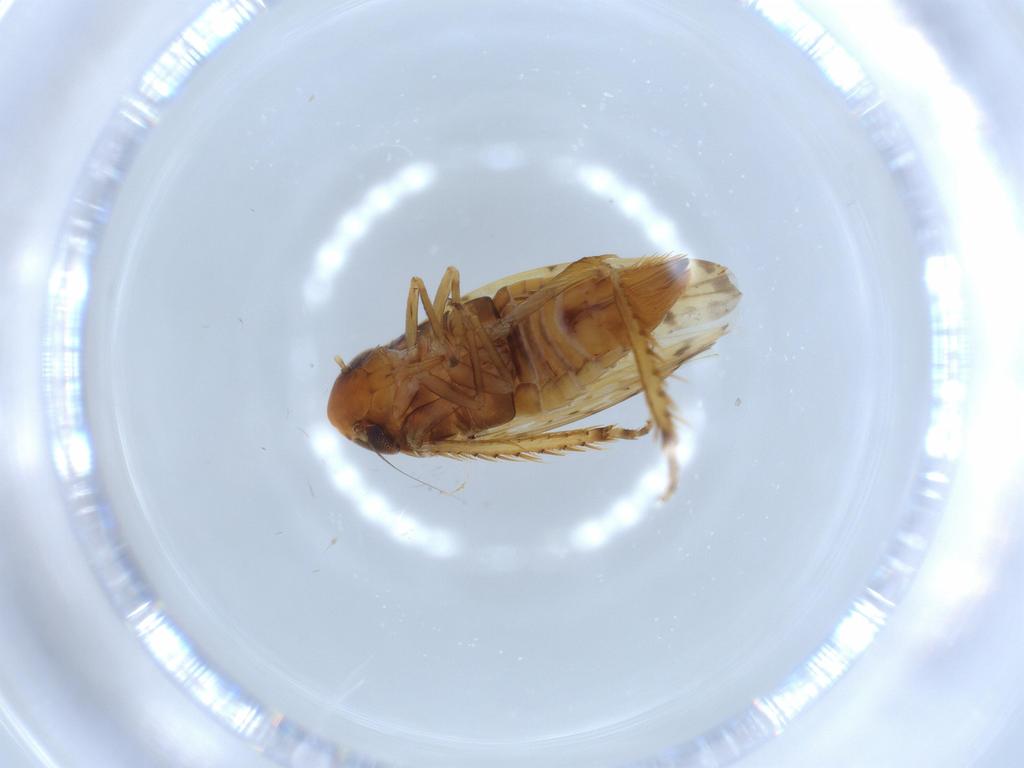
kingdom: Animalia
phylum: Arthropoda
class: Insecta
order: Hemiptera
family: Cicadellidae
